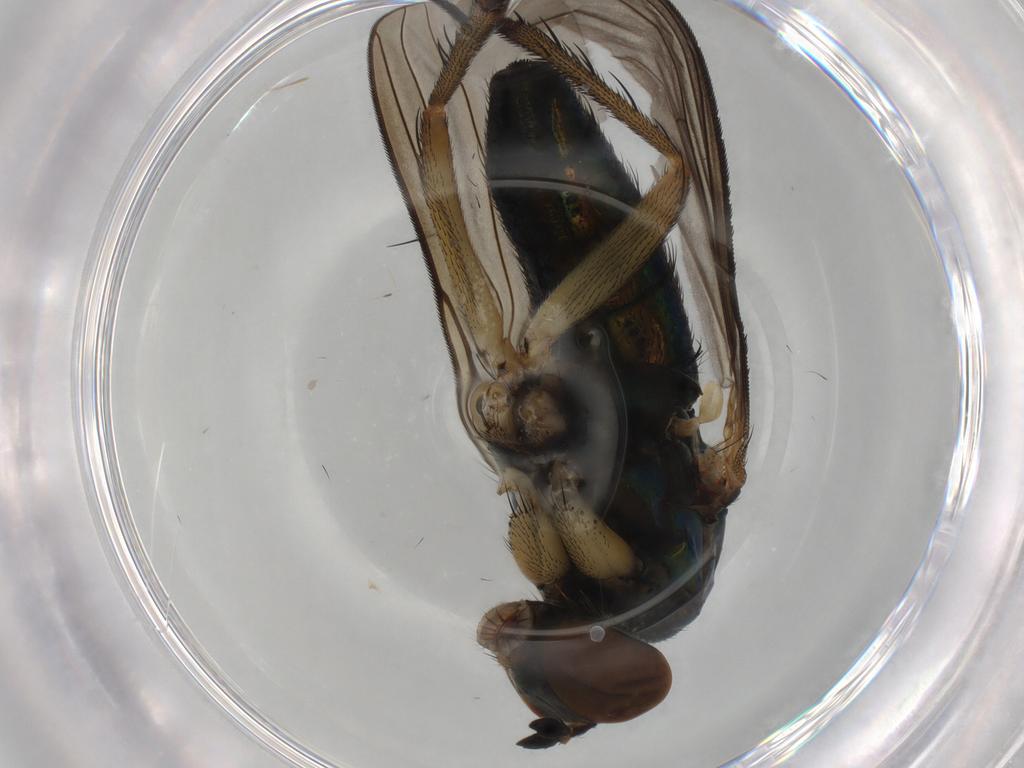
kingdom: Animalia
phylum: Arthropoda
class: Insecta
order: Diptera
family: Dolichopodidae
